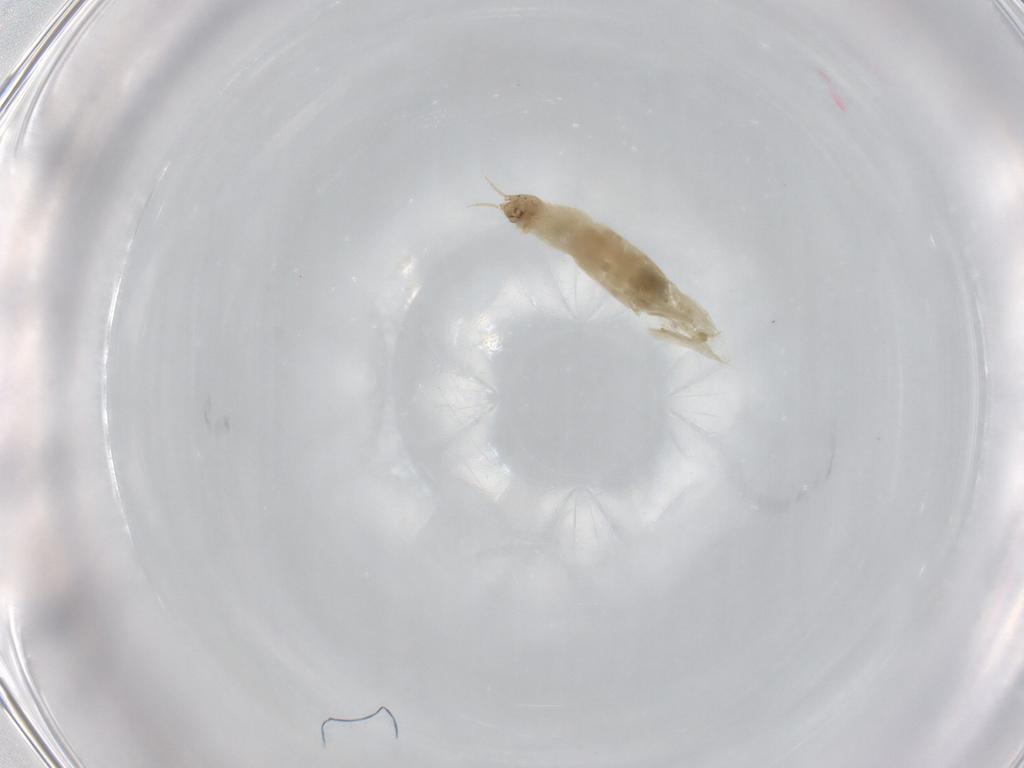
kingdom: Animalia
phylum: Arthropoda
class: Insecta
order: Diptera
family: Chironomidae
